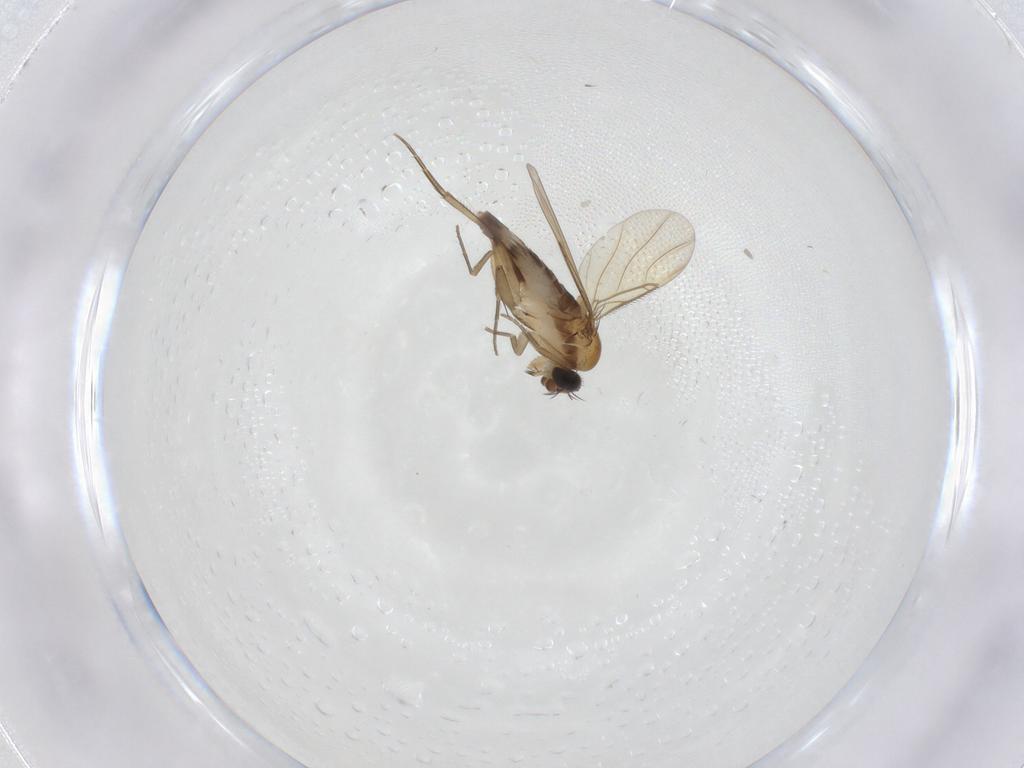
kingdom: Animalia
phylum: Arthropoda
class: Insecta
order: Diptera
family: Phoridae
